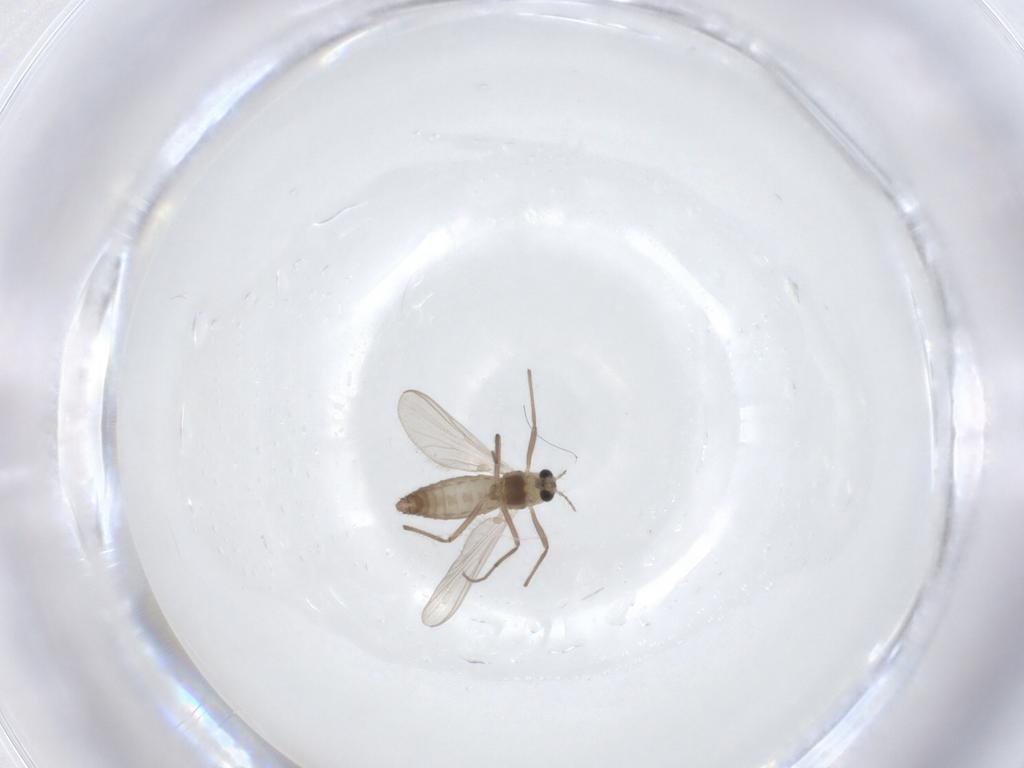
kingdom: Animalia
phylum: Arthropoda
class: Insecta
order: Diptera
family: Chironomidae
